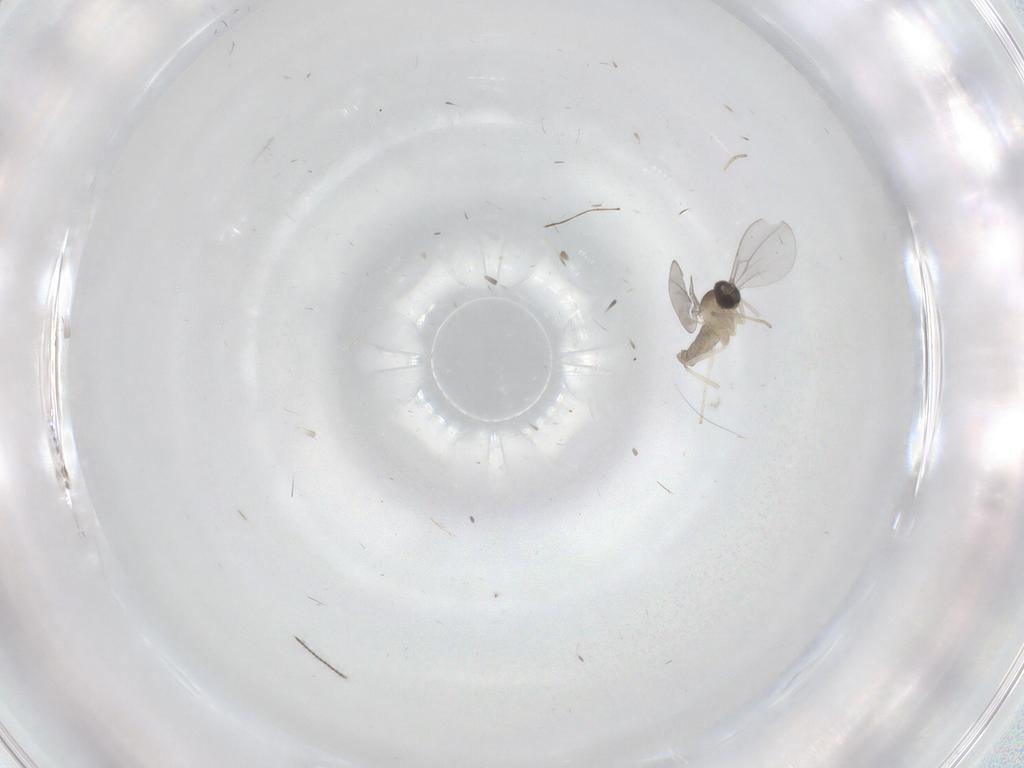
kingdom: Animalia
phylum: Arthropoda
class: Insecta
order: Diptera
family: Cecidomyiidae
